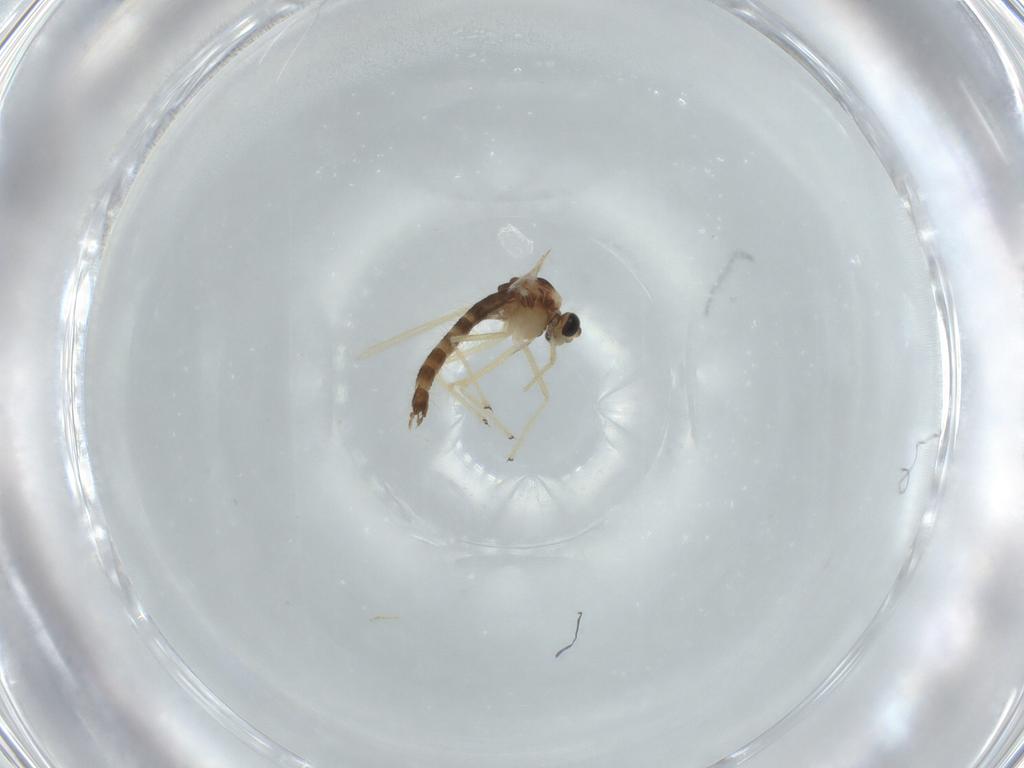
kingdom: Animalia
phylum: Arthropoda
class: Insecta
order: Diptera
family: Chironomidae
